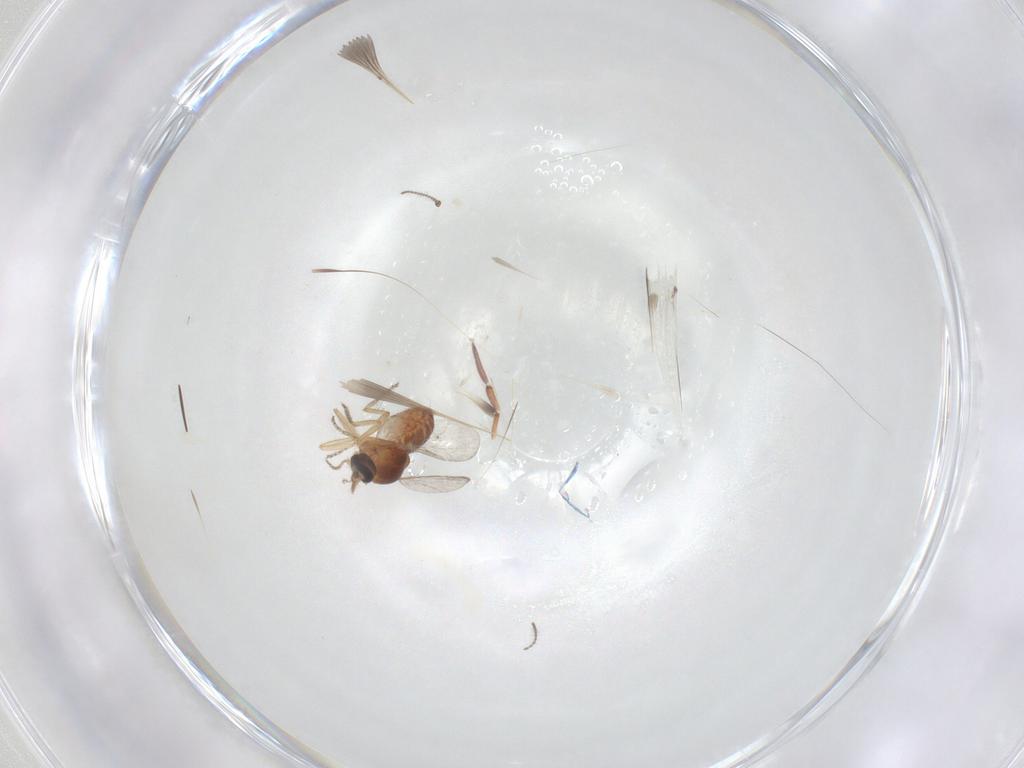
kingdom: Animalia
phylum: Arthropoda
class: Insecta
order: Diptera
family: Ceratopogonidae
